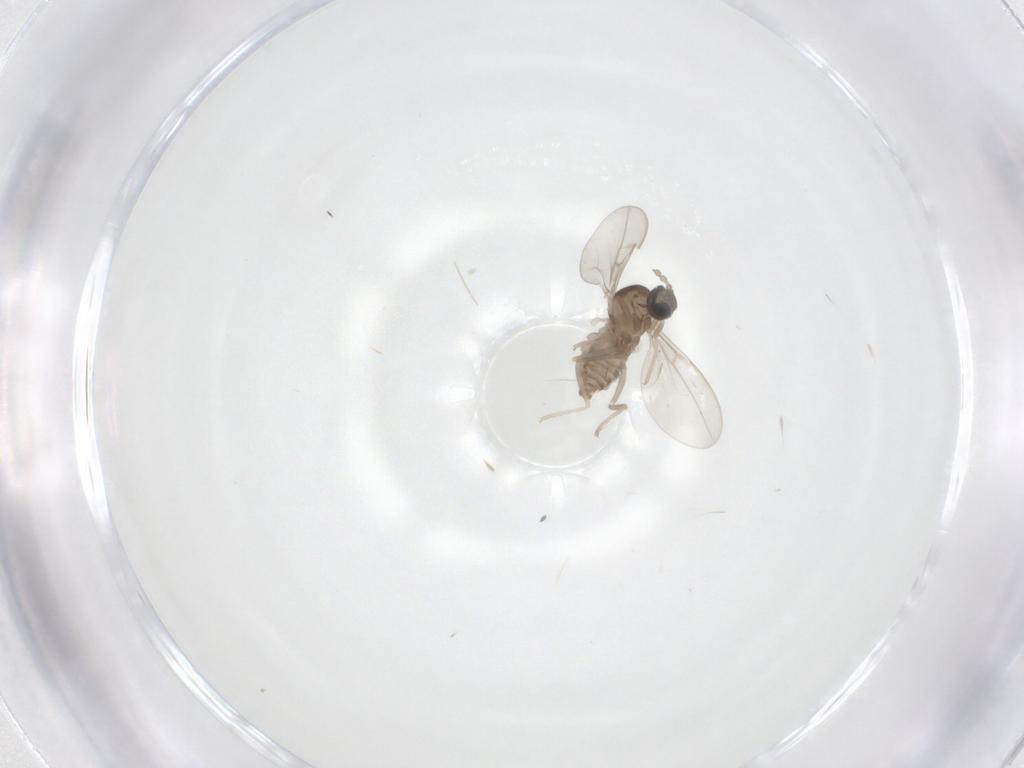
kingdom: Animalia
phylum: Arthropoda
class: Insecta
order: Diptera
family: Cecidomyiidae
